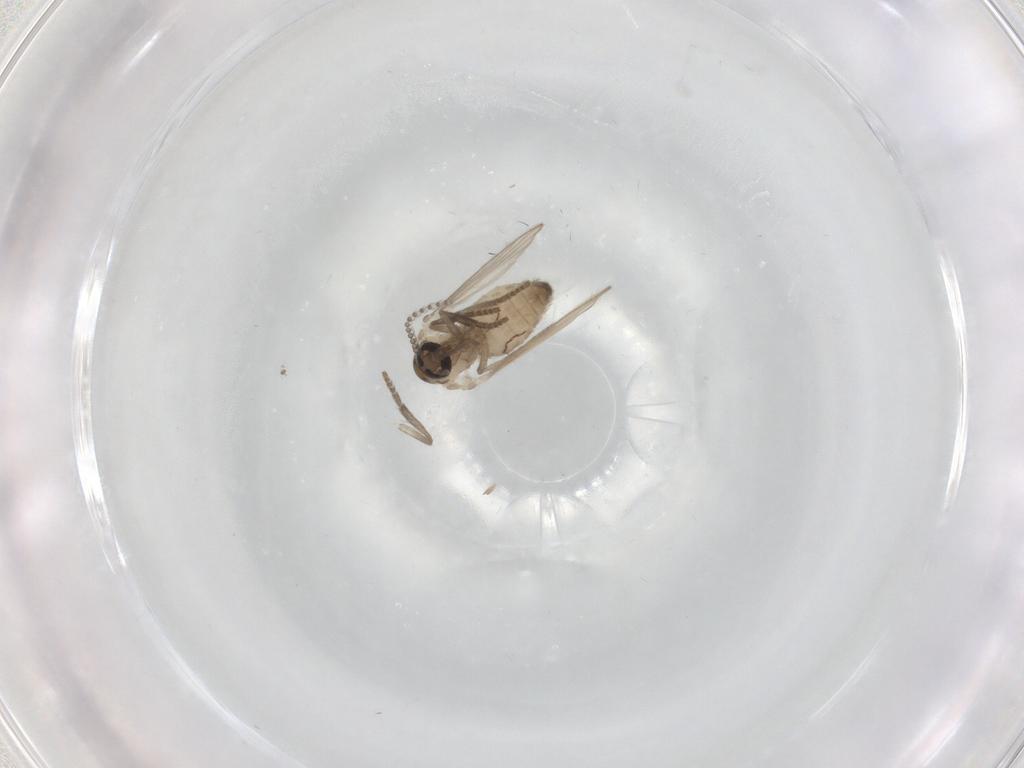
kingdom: Animalia
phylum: Arthropoda
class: Insecta
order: Diptera
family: Psychodidae
